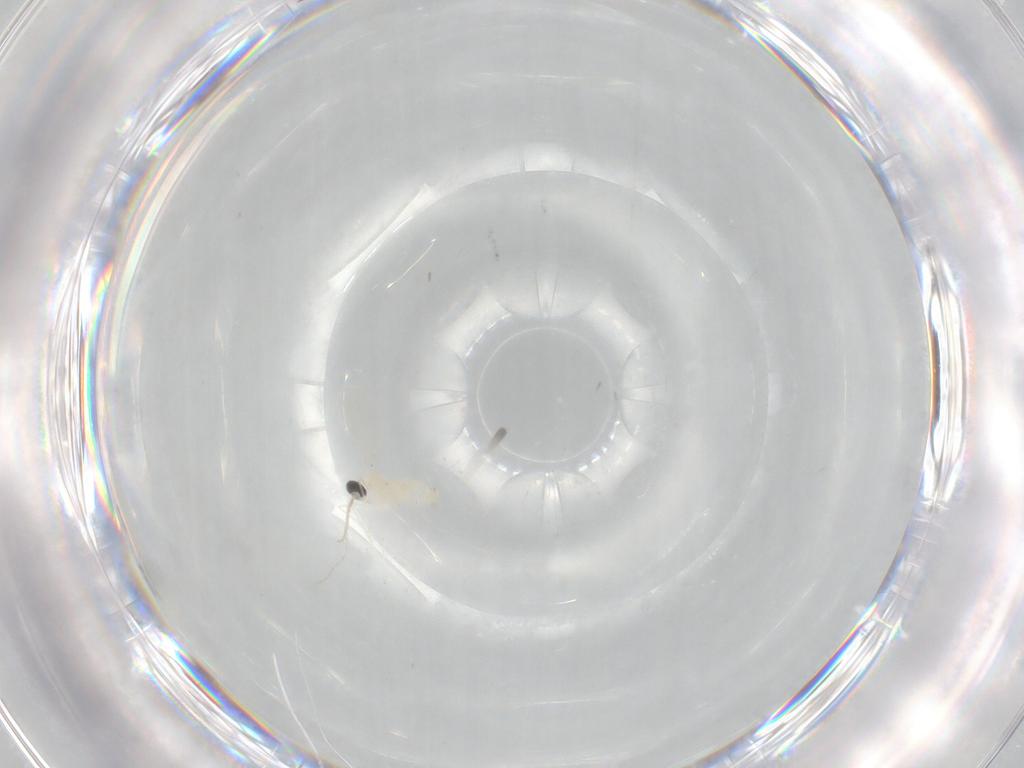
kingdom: Animalia
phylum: Arthropoda
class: Insecta
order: Diptera
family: Cecidomyiidae
